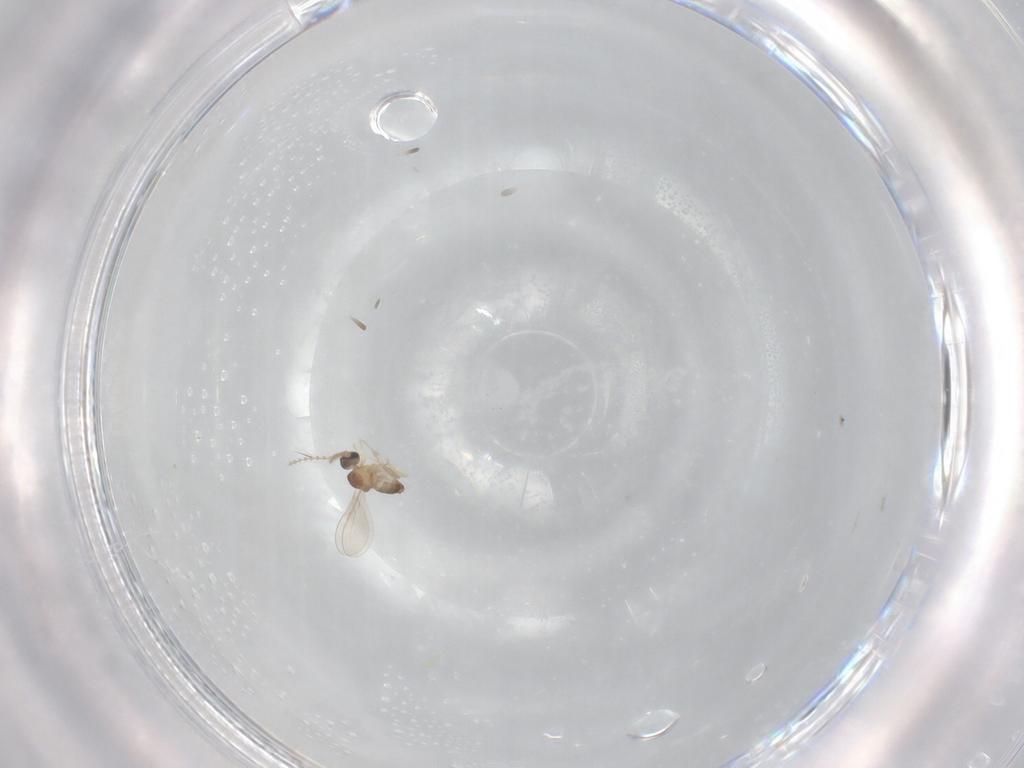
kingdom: Animalia
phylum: Arthropoda
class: Insecta
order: Diptera
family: Cecidomyiidae
